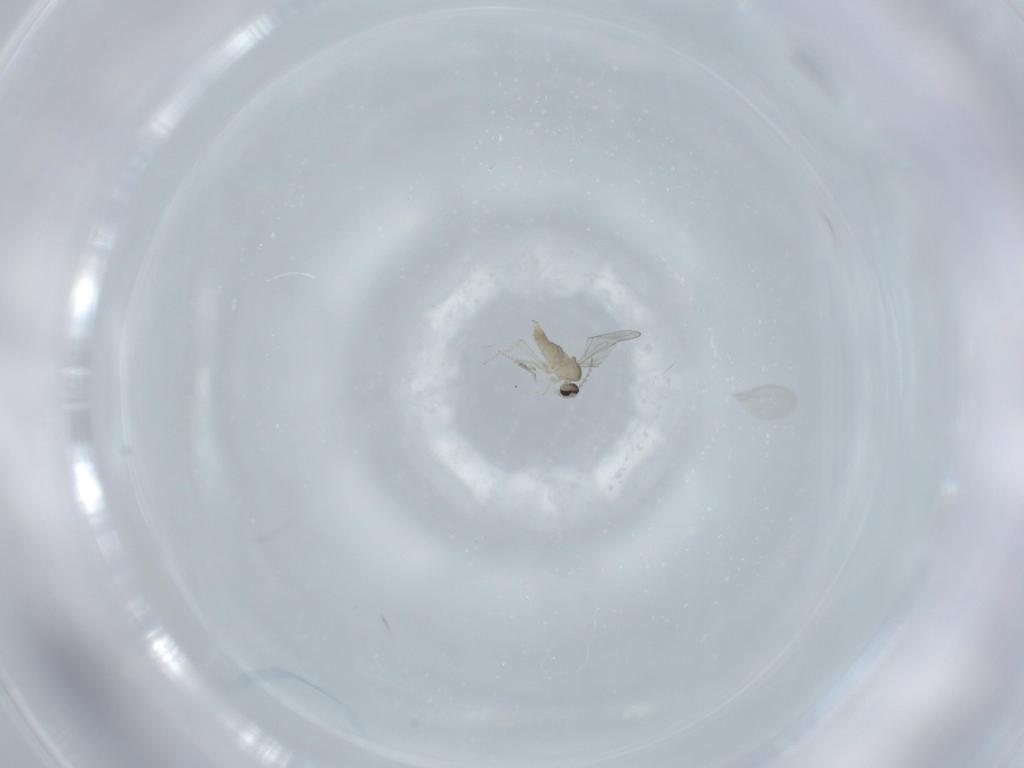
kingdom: Animalia
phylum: Arthropoda
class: Insecta
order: Diptera
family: Cecidomyiidae
